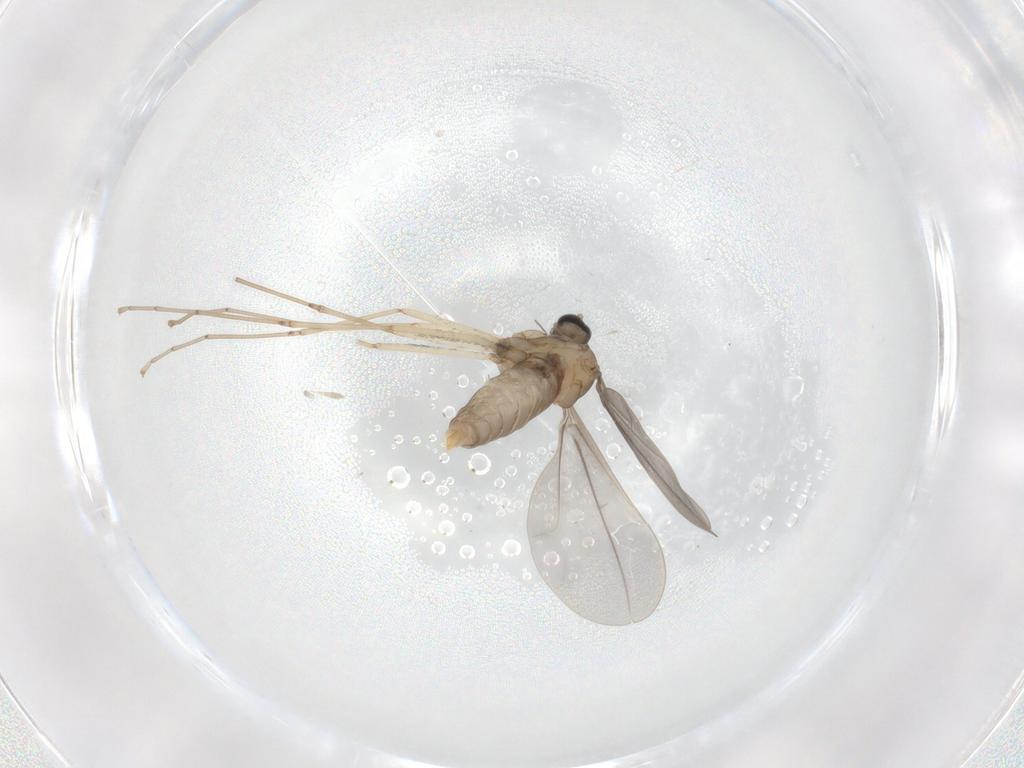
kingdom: Animalia
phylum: Arthropoda
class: Insecta
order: Diptera
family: Cecidomyiidae
